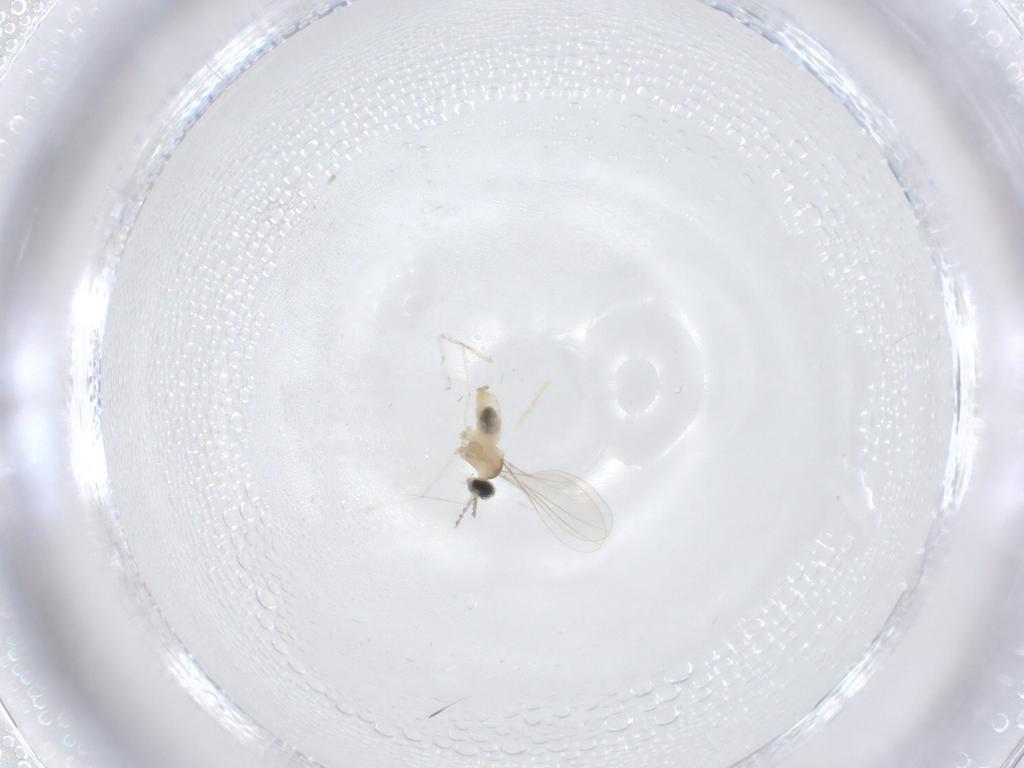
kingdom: Animalia
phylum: Arthropoda
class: Insecta
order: Diptera
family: Cecidomyiidae
